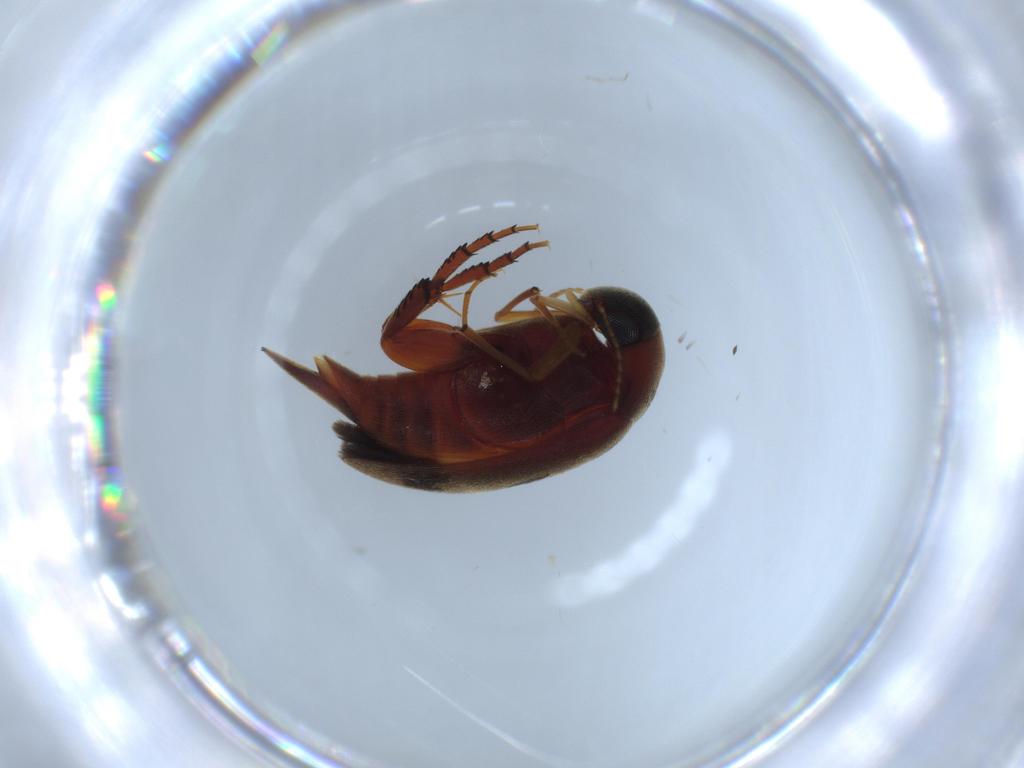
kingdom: Animalia
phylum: Arthropoda
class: Insecta
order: Coleoptera
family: Mordellidae
